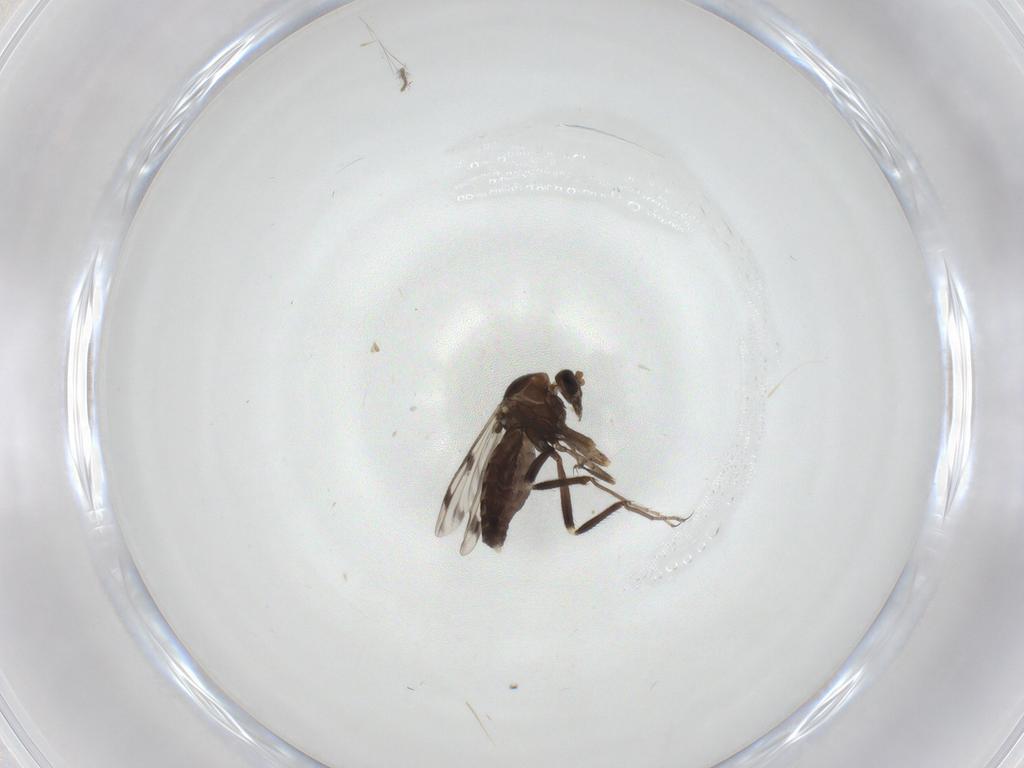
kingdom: Animalia
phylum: Arthropoda
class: Insecta
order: Diptera
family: Ceratopogonidae
